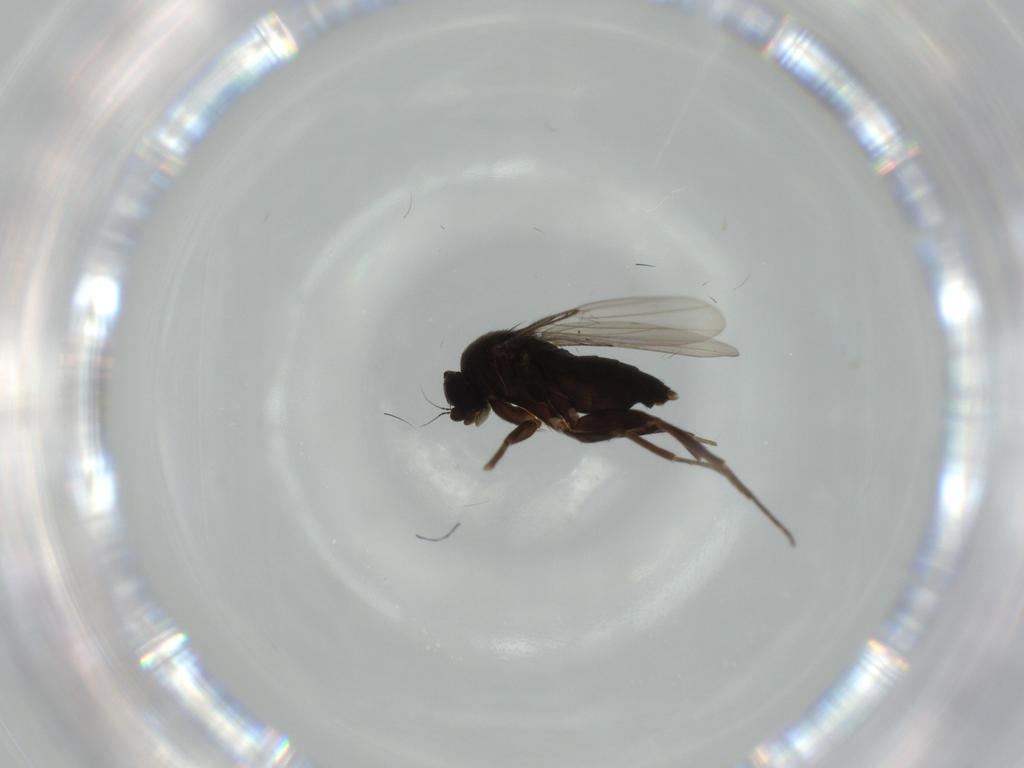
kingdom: Animalia
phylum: Arthropoda
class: Insecta
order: Diptera
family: Phoridae
